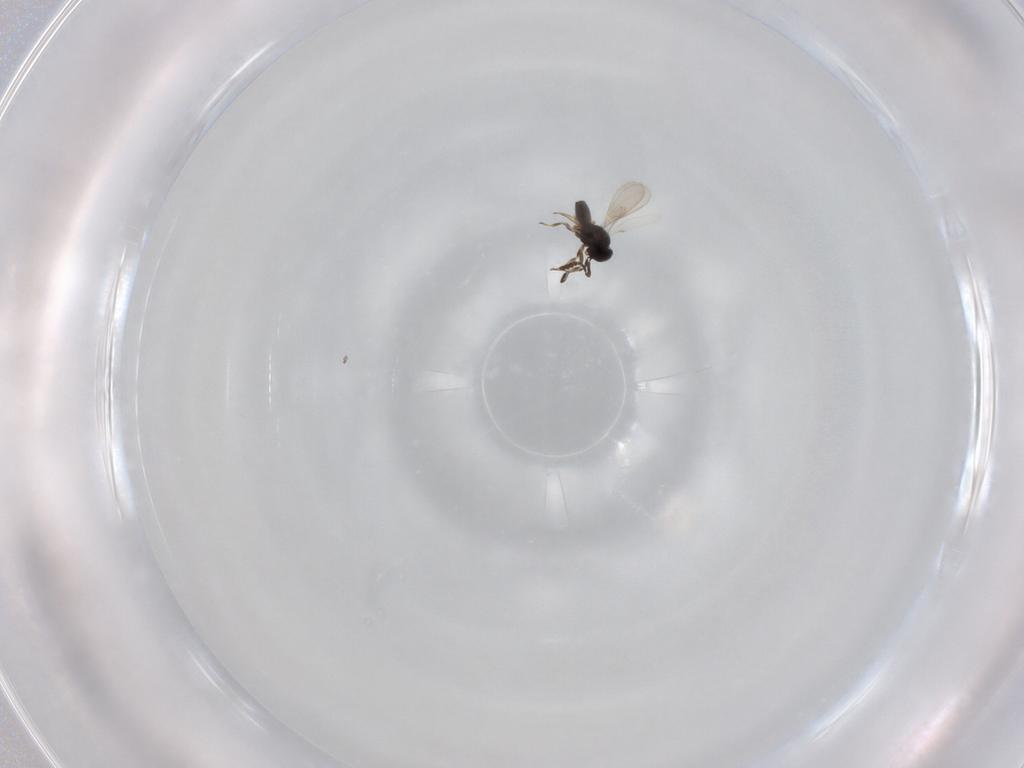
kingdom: Animalia
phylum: Arthropoda
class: Insecta
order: Hymenoptera
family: Scelionidae
